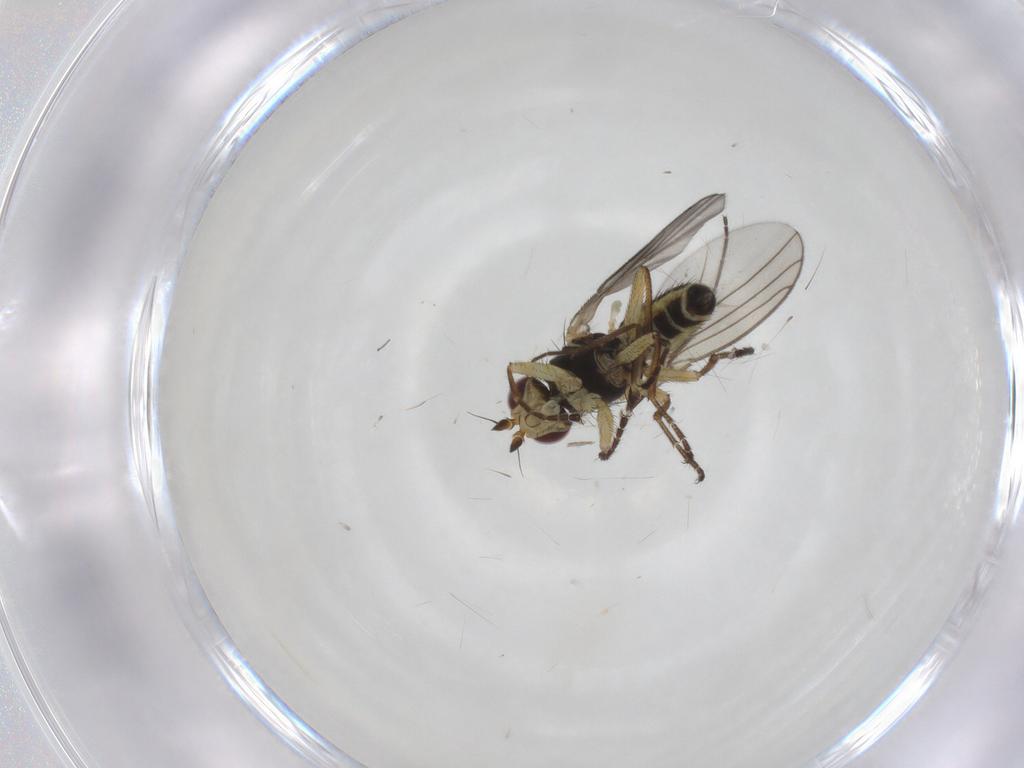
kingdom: Animalia
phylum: Arthropoda
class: Insecta
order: Diptera
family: Agromyzidae
